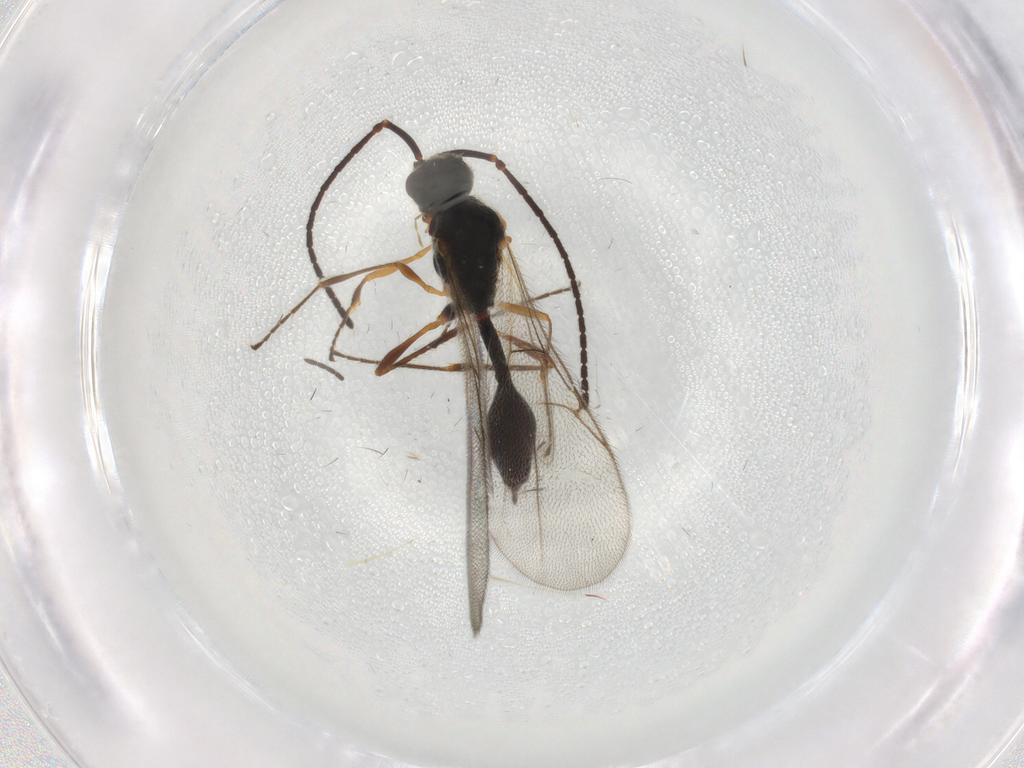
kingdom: Animalia
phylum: Arthropoda
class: Insecta
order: Hymenoptera
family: Diapriidae
